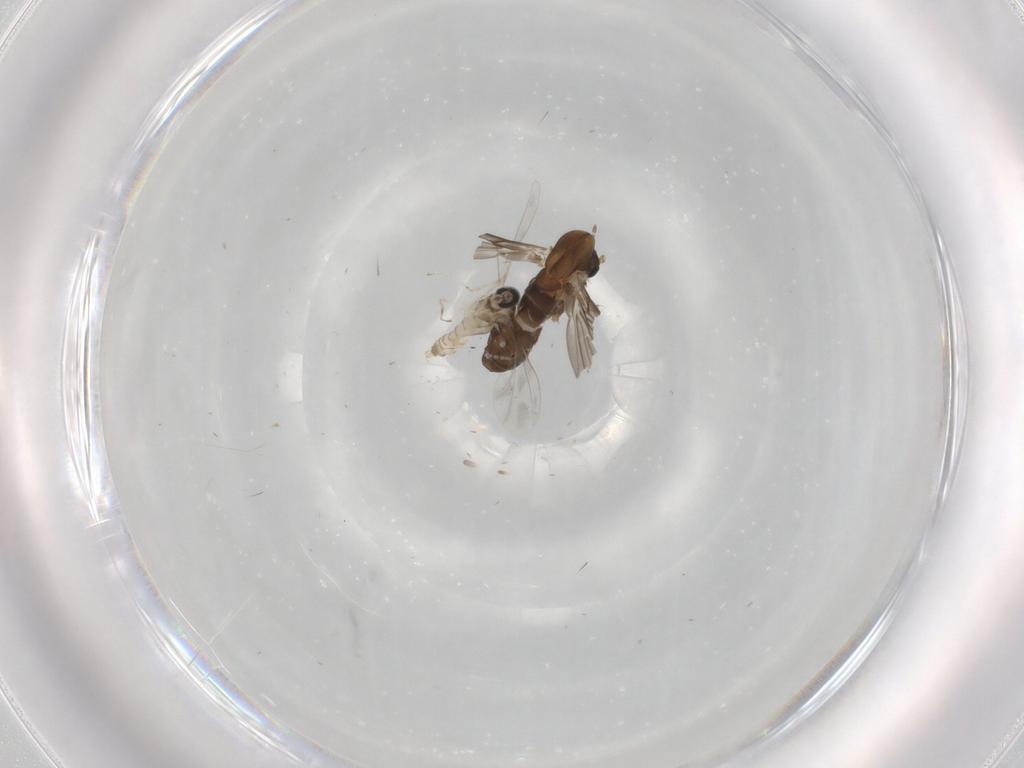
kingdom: Animalia
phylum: Arthropoda
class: Insecta
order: Diptera
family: Psychodidae
